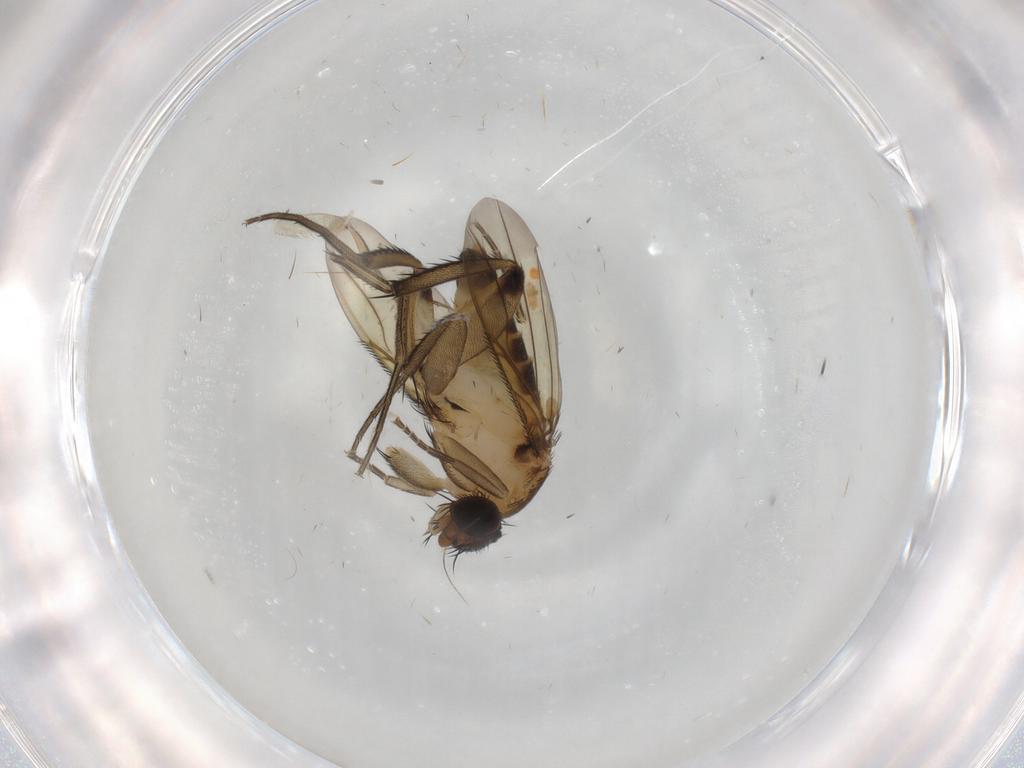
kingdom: Animalia
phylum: Arthropoda
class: Insecta
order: Diptera
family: Phoridae
